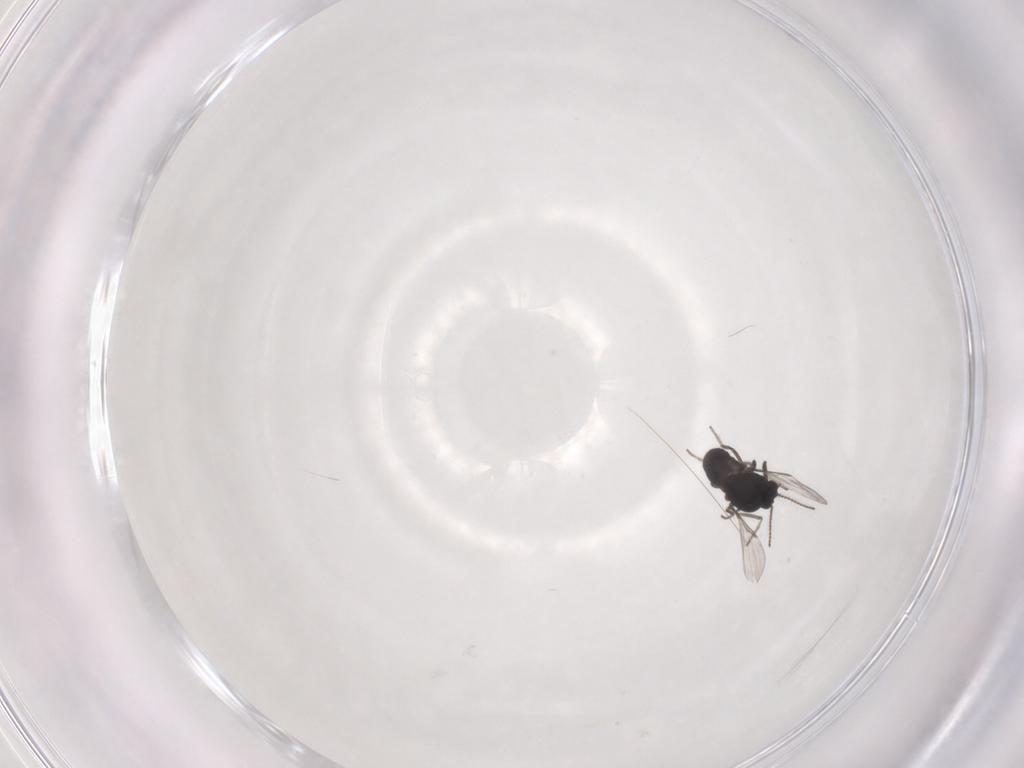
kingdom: Animalia
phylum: Arthropoda
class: Insecta
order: Diptera
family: Ceratopogonidae
